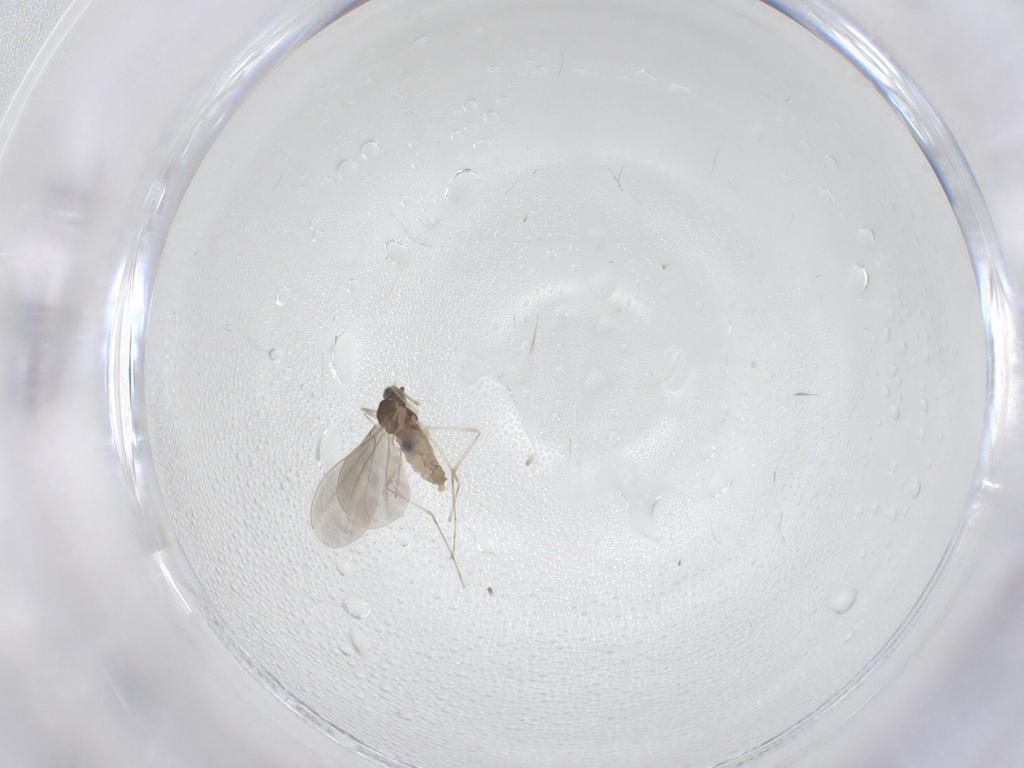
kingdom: Animalia
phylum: Arthropoda
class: Insecta
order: Diptera
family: Cecidomyiidae
